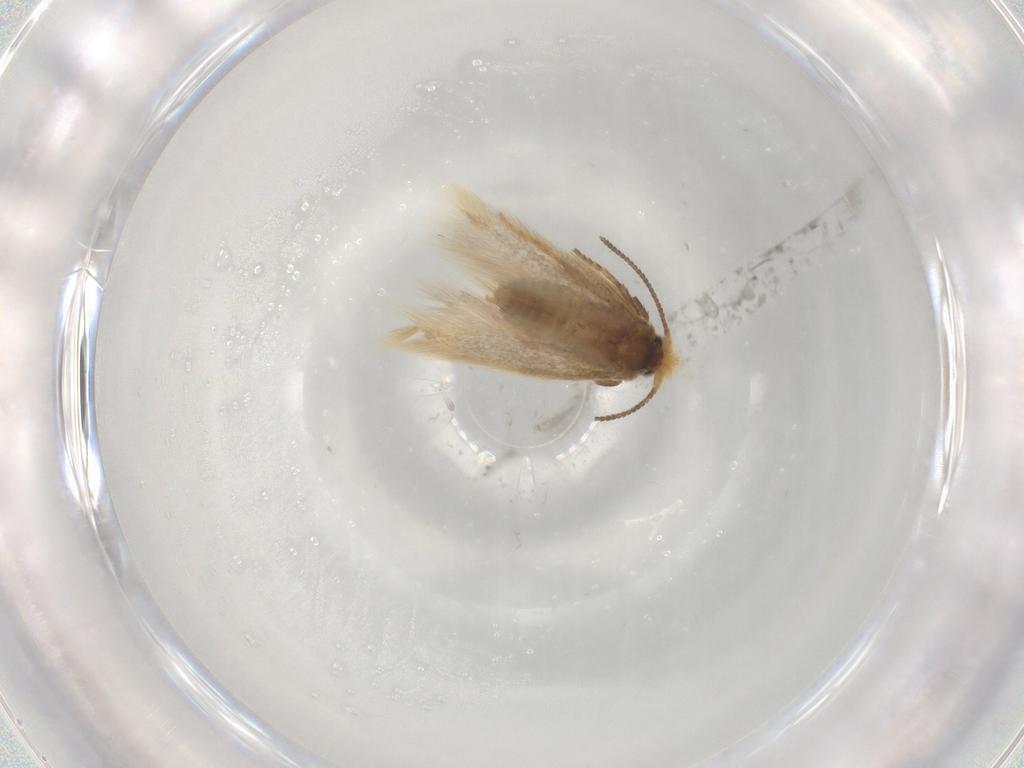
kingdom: Animalia
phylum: Arthropoda
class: Insecta
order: Lepidoptera
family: Nepticulidae
